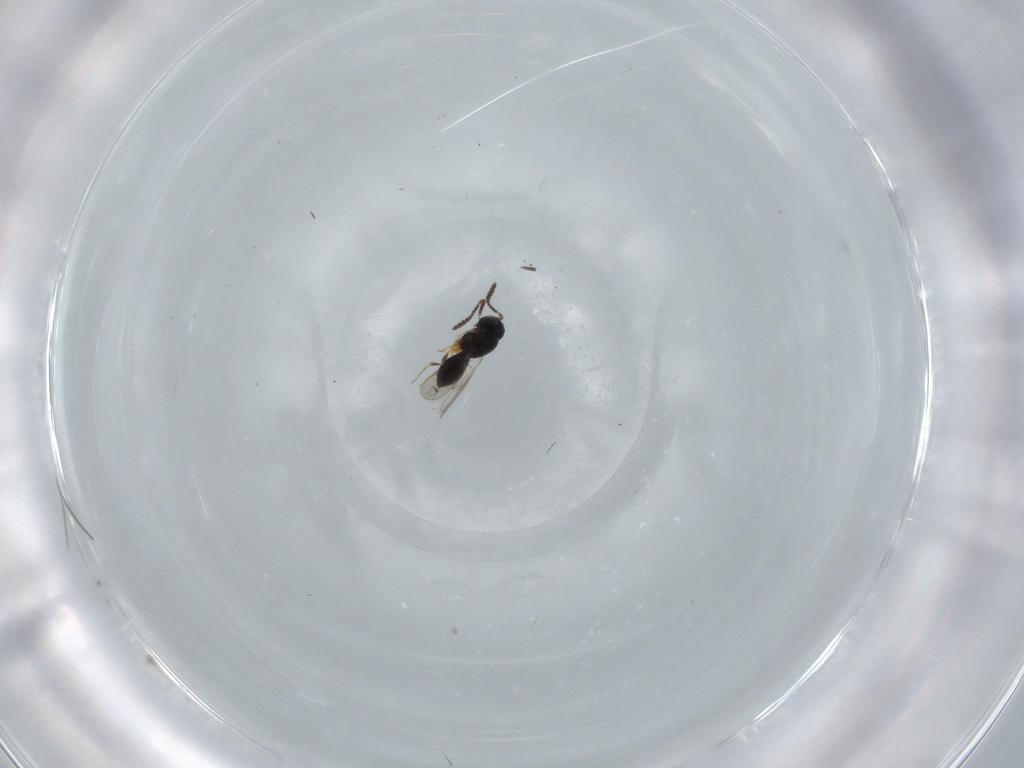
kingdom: Animalia
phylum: Arthropoda
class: Insecta
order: Hymenoptera
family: Scelionidae
